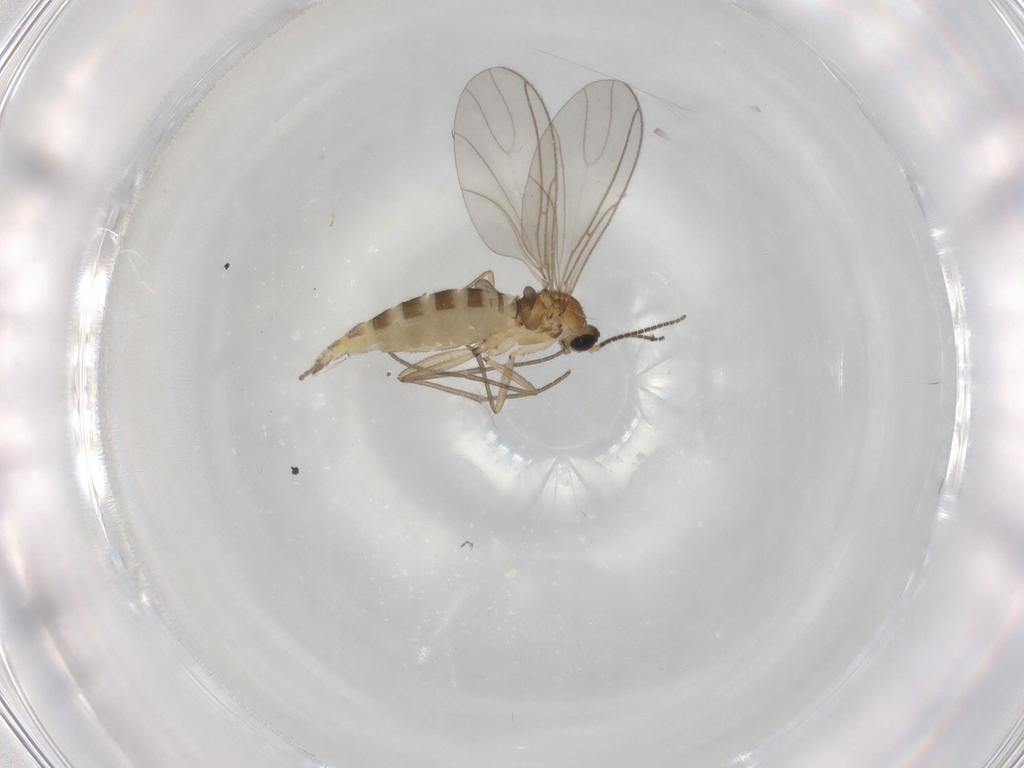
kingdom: Animalia
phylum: Arthropoda
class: Insecta
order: Diptera
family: Sciaridae
